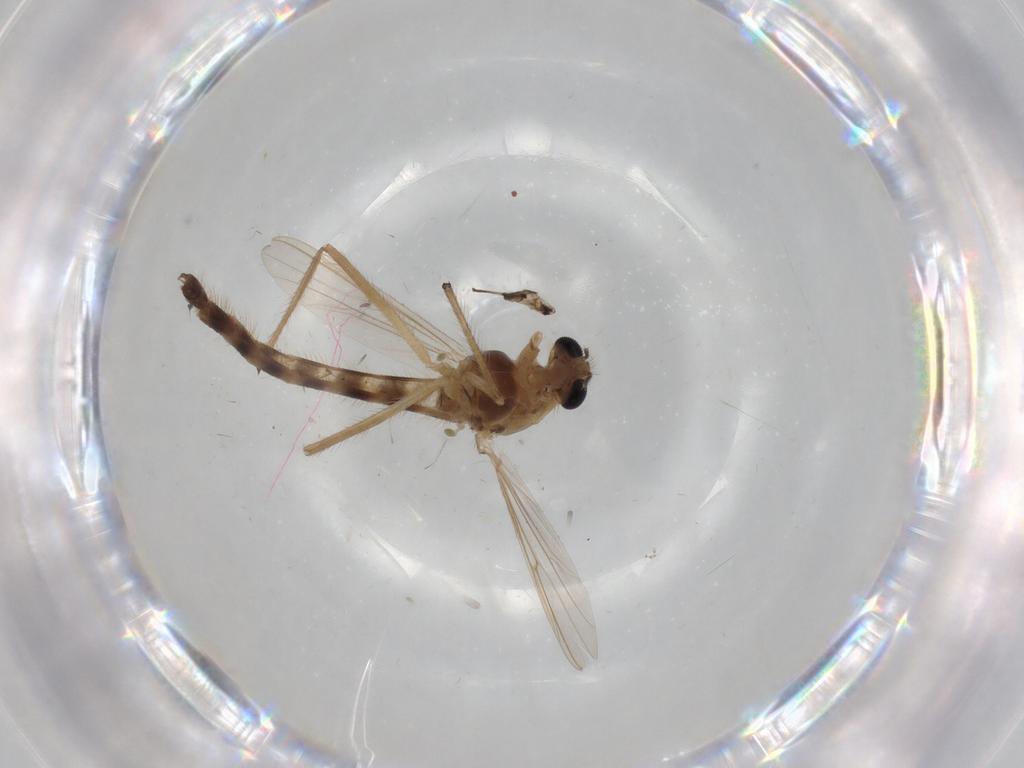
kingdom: Animalia
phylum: Arthropoda
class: Insecta
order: Diptera
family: Chironomidae
